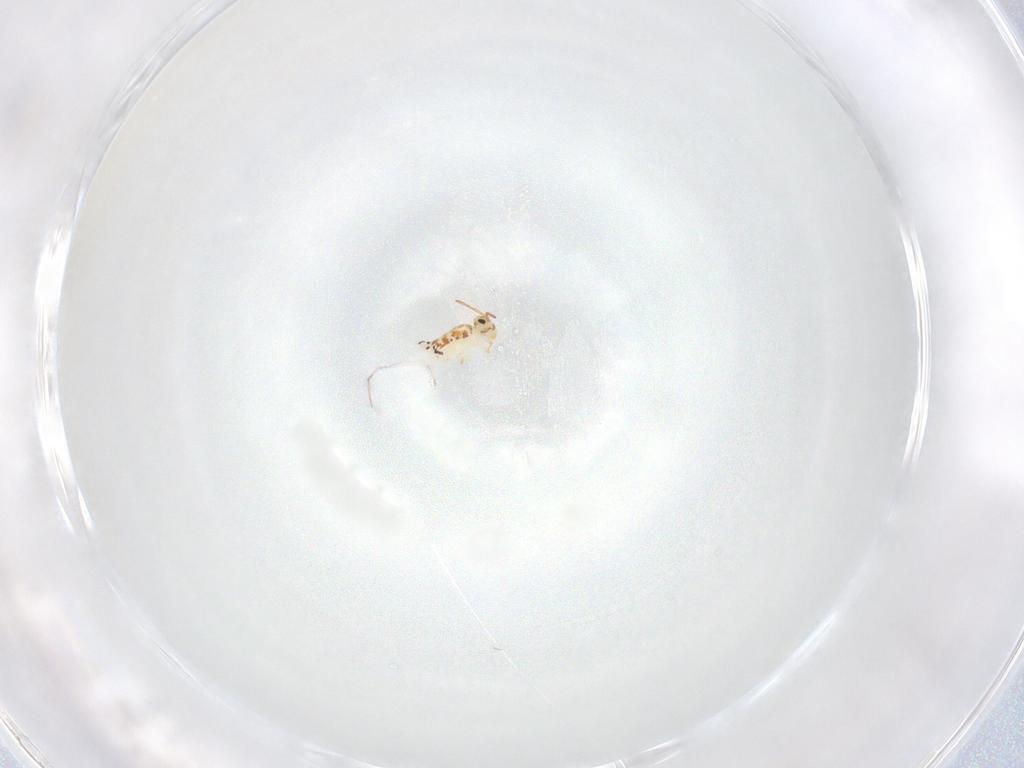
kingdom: Animalia
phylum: Arthropoda
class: Collembola
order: Symphypleona
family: Bourletiellidae
